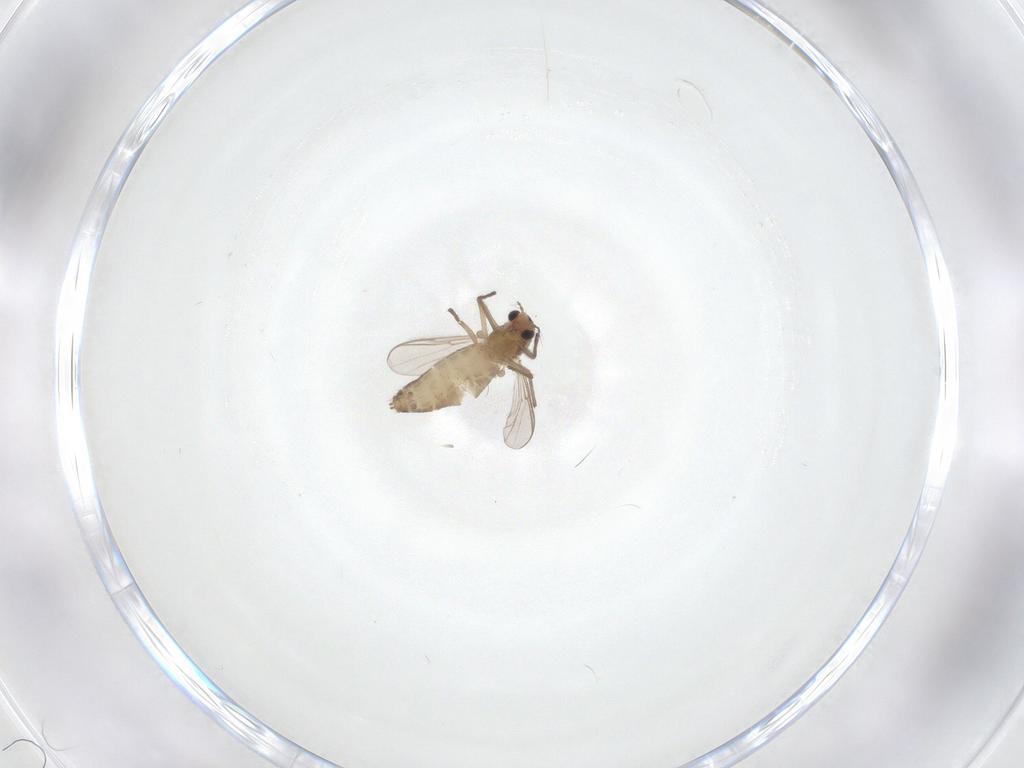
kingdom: Animalia
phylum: Arthropoda
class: Insecta
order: Diptera
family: Chironomidae
